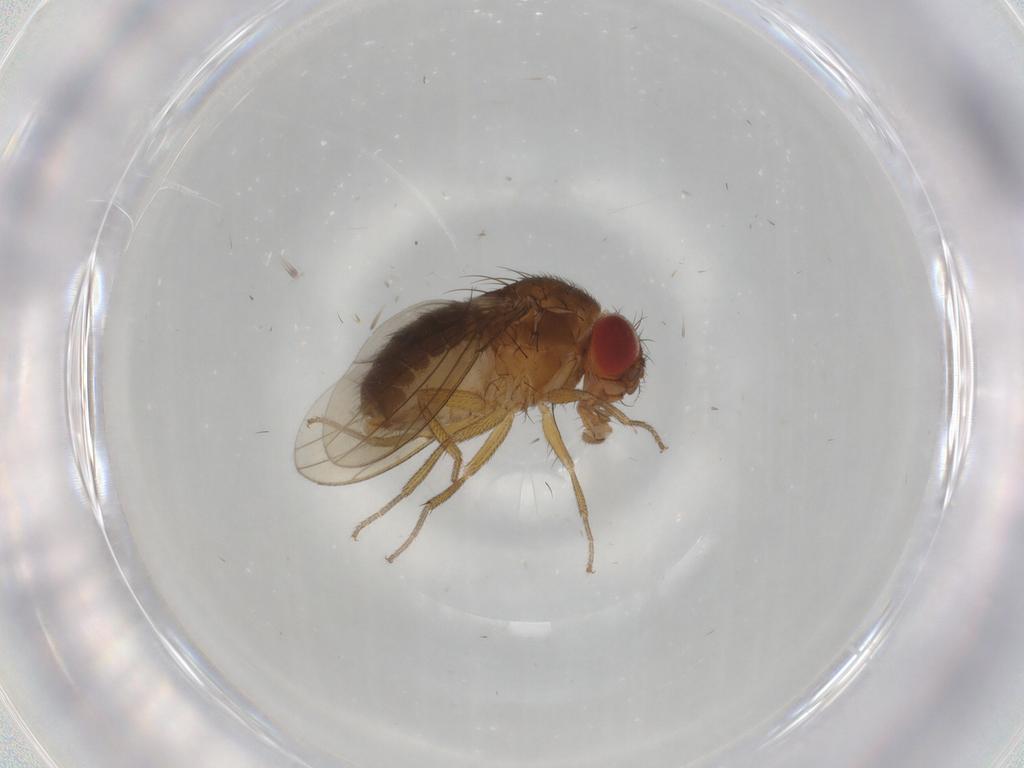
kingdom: Animalia
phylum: Arthropoda
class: Insecta
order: Diptera
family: Drosophilidae
